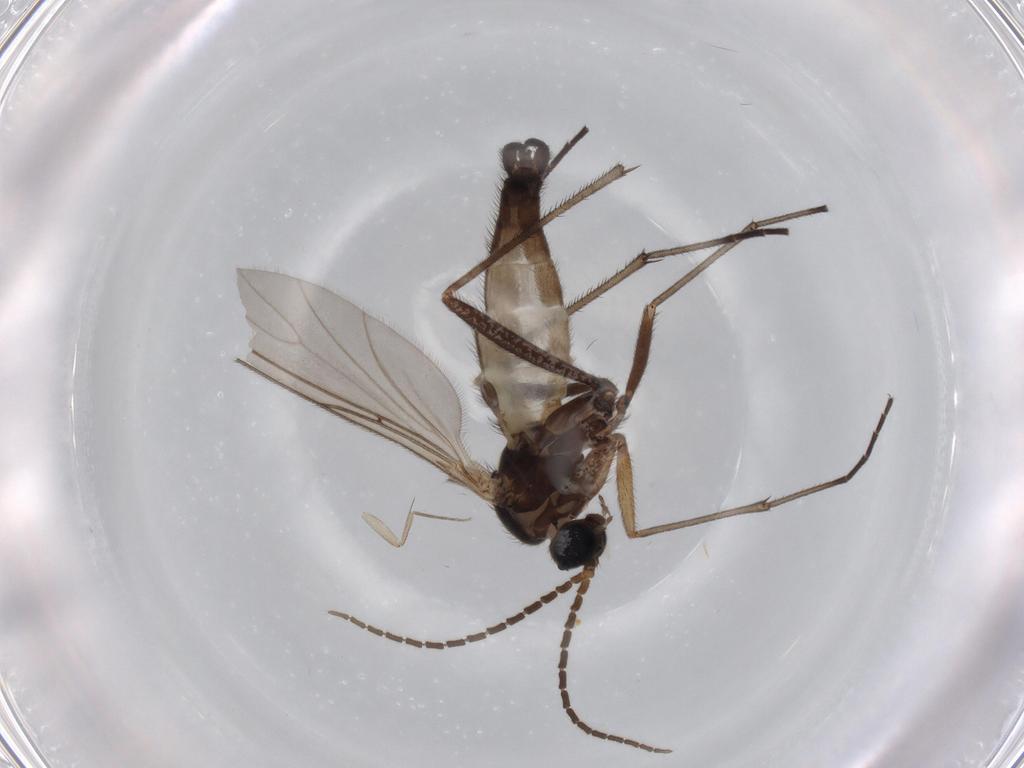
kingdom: Animalia
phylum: Arthropoda
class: Insecta
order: Diptera
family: Sciaridae
